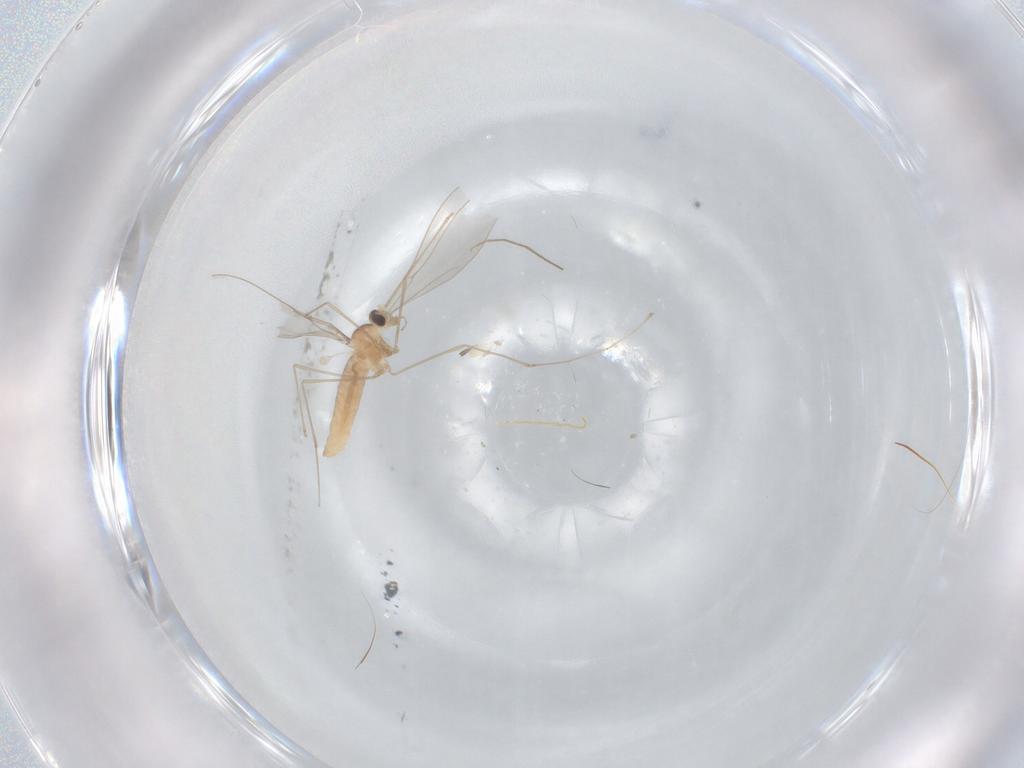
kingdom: Animalia
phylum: Arthropoda
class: Insecta
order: Diptera
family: Cecidomyiidae
